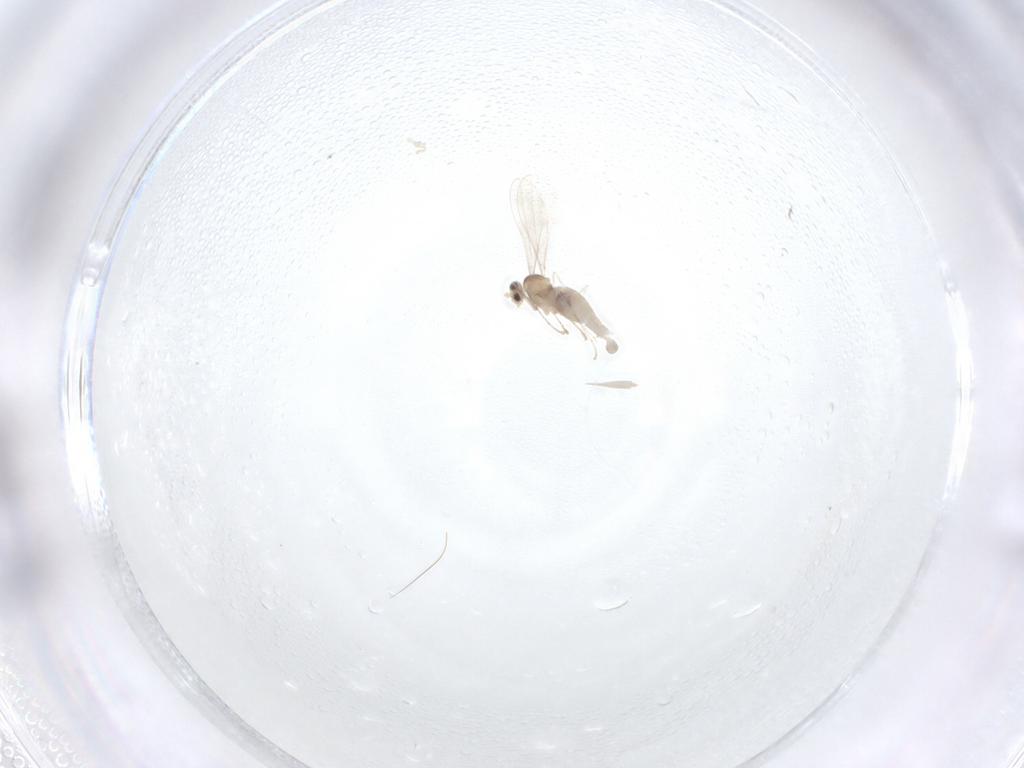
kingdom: Animalia
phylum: Arthropoda
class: Insecta
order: Diptera
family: Cecidomyiidae
